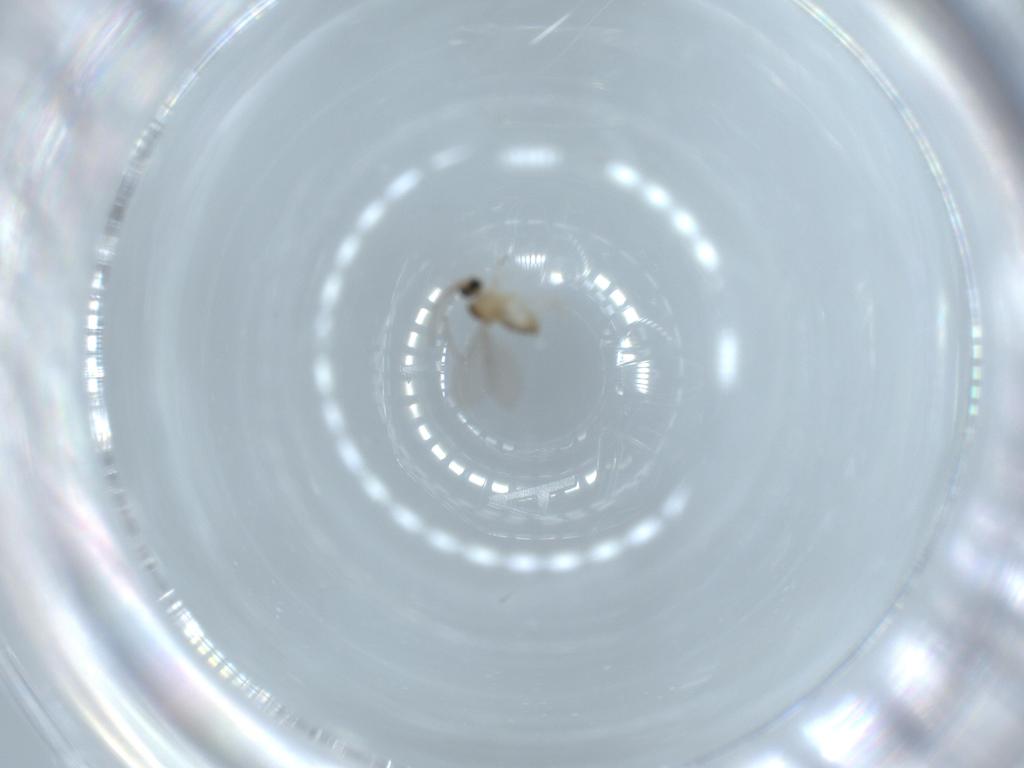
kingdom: Animalia
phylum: Arthropoda
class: Insecta
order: Diptera
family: Cecidomyiidae
